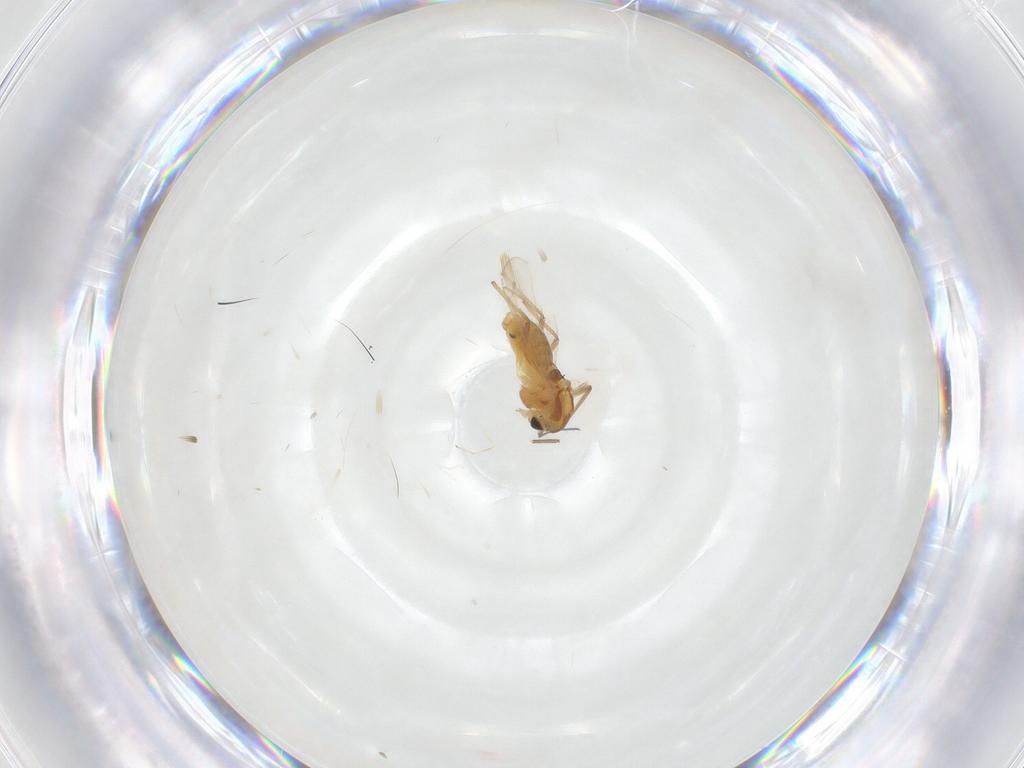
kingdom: Animalia
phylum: Arthropoda
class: Insecta
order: Diptera
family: Chironomidae
